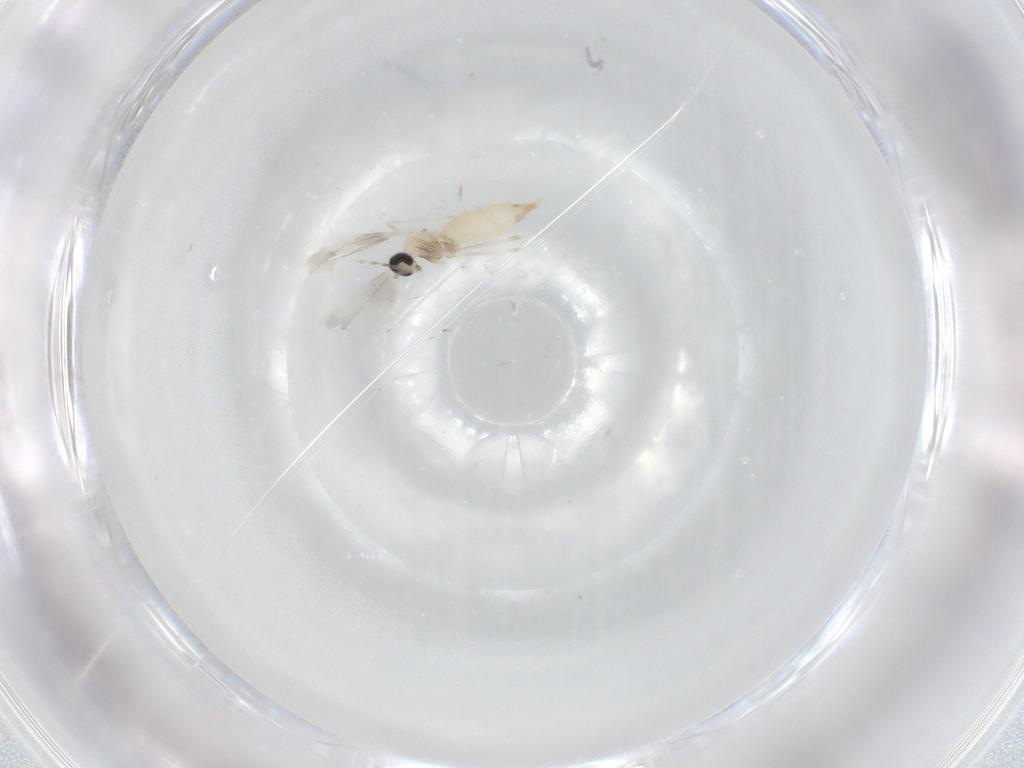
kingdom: Animalia
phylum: Arthropoda
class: Insecta
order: Diptera
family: Cecidomyiidae
